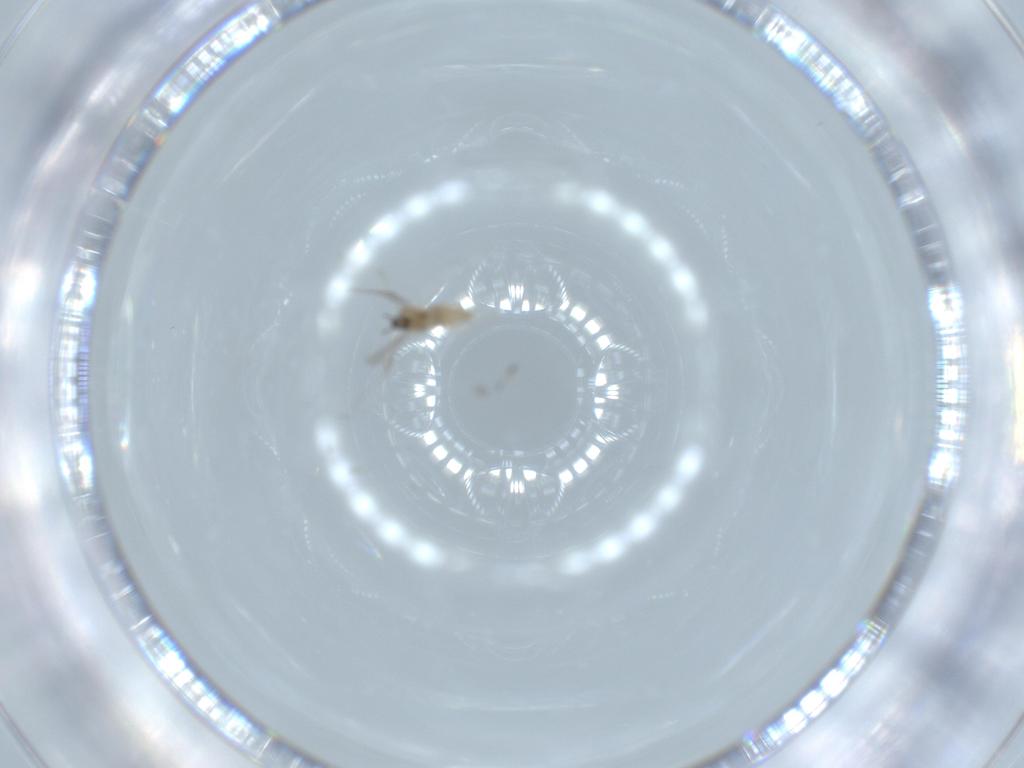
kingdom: Animalia
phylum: Arthropoda
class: Insecta
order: Diptera
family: Cecidomyiidae
